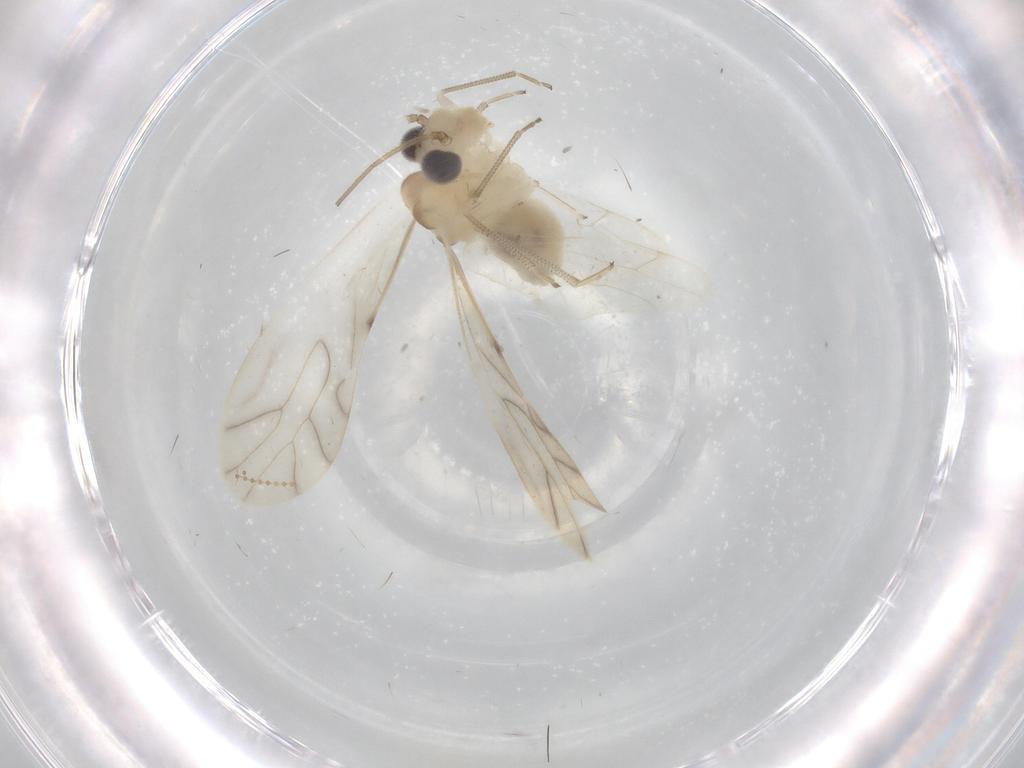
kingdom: Animalia
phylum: Arthropoda
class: Insecta
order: Psocodea
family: Caeciliusidae
